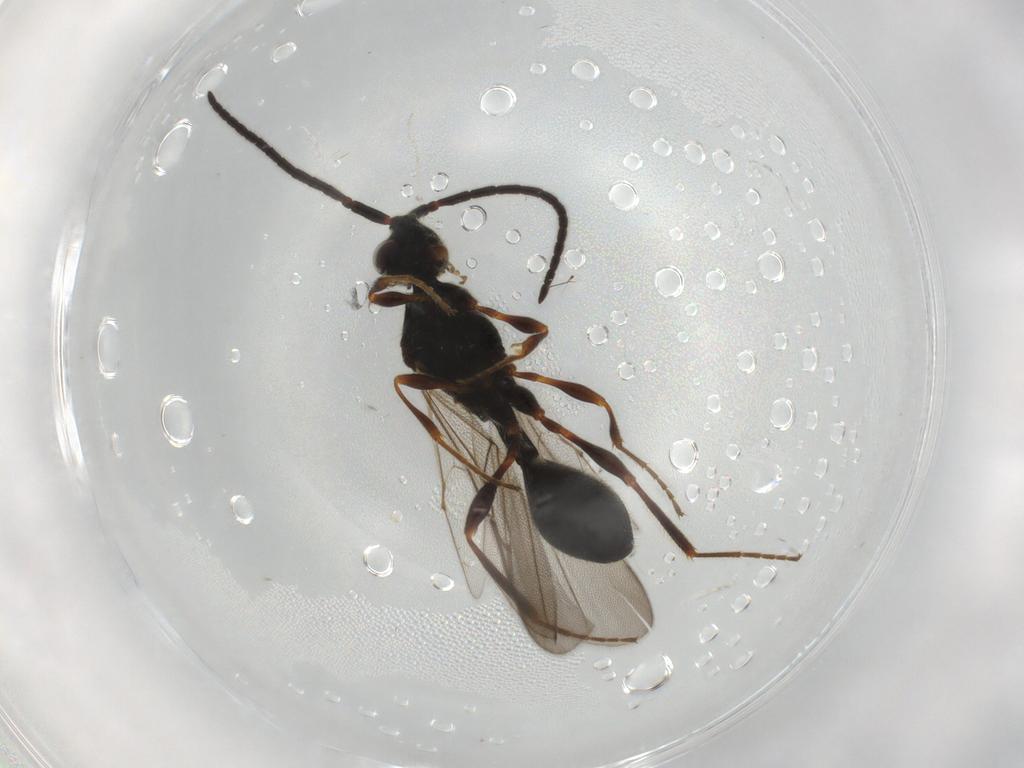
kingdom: Animalia
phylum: Arthropoda
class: Insecta
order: Hymenoptera
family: Diapriidae
